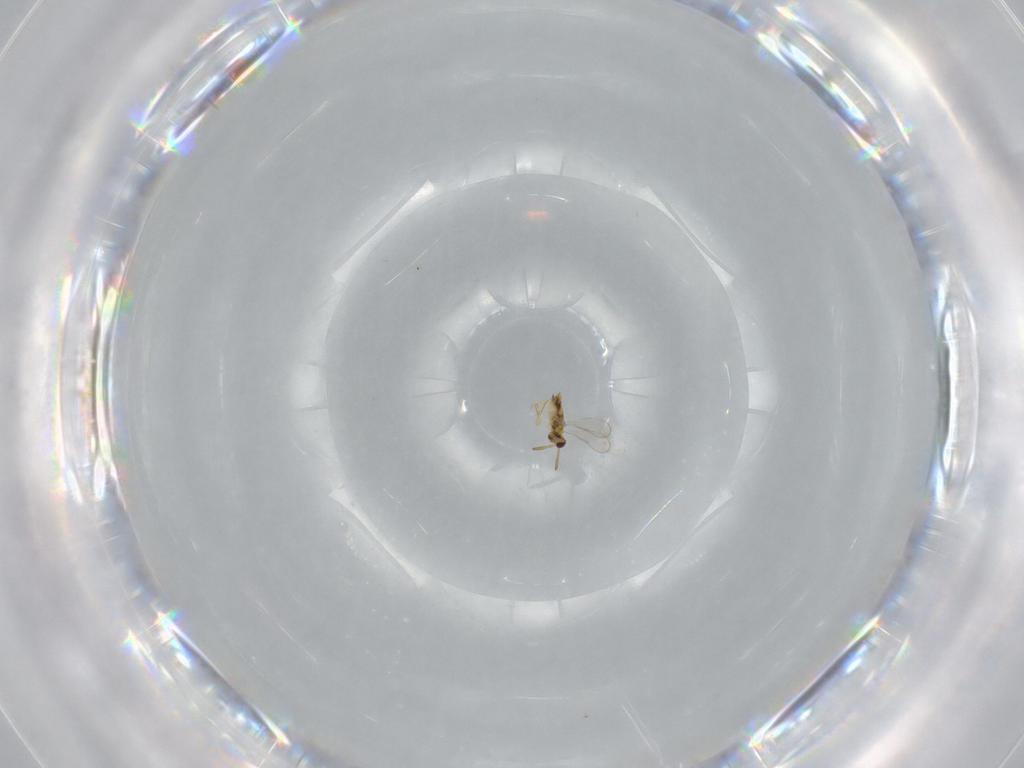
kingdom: Animalia
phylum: Arthropoda
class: Insecta
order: Hymenoptera
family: Aphelinidae
